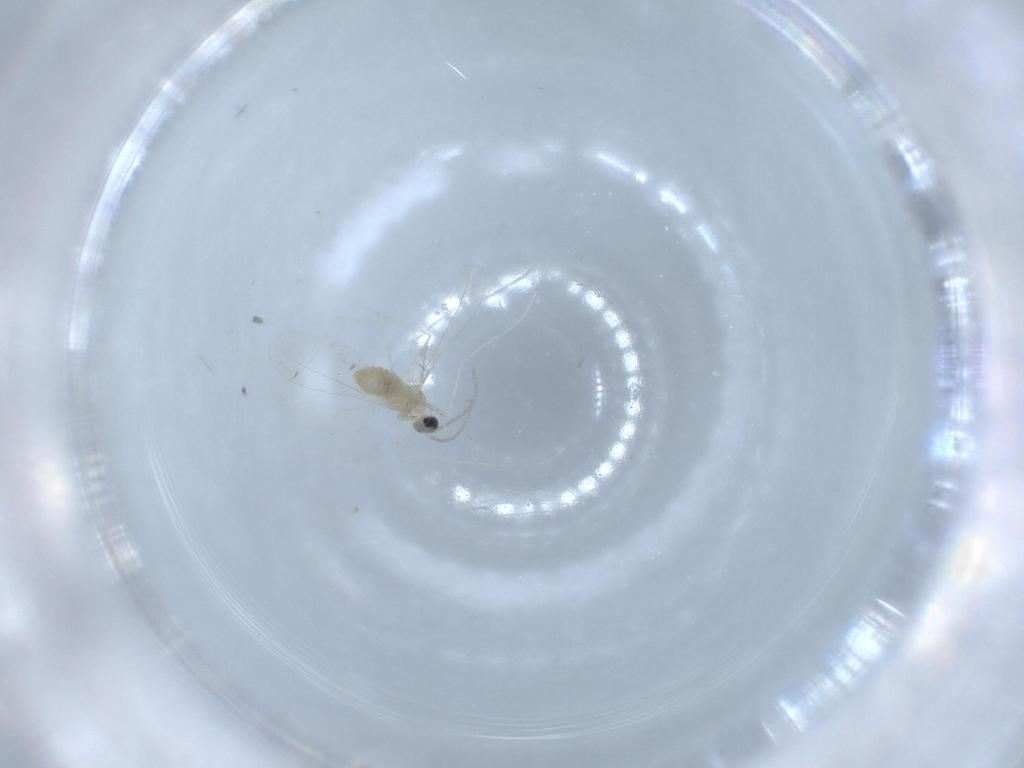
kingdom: Animalia
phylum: Arthropoda
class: Insecta
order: Diptera
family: Cecidomyiidae
